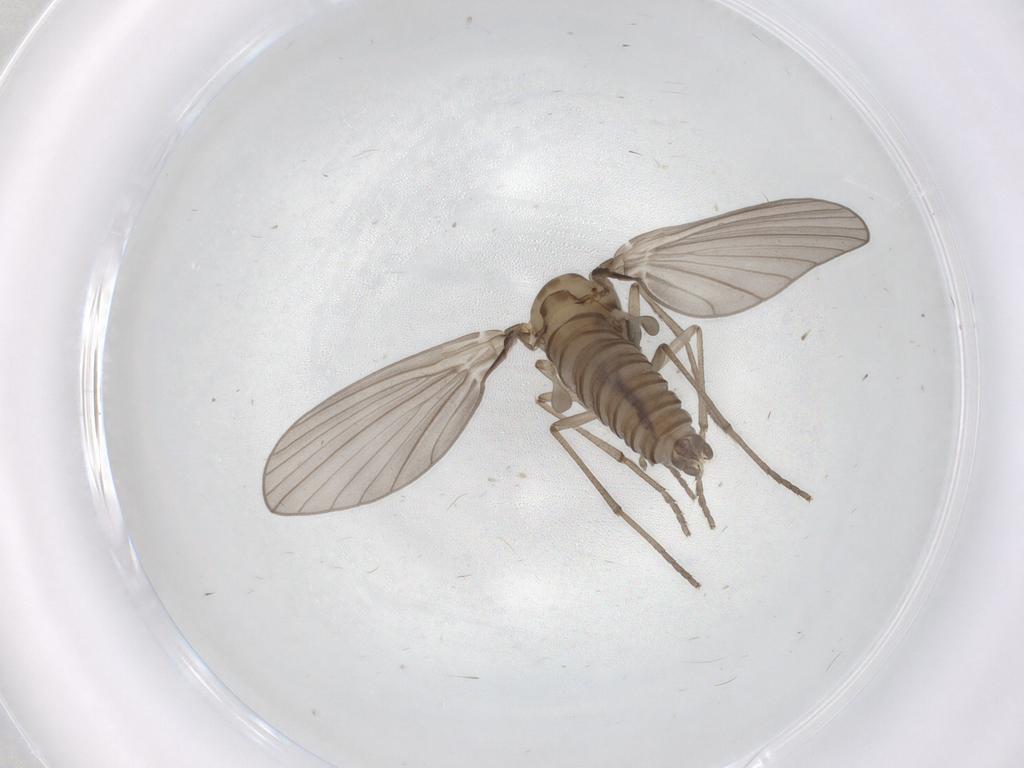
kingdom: Animalia
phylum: Arthropoda
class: Insecta
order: Diptera
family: Psychodidae
